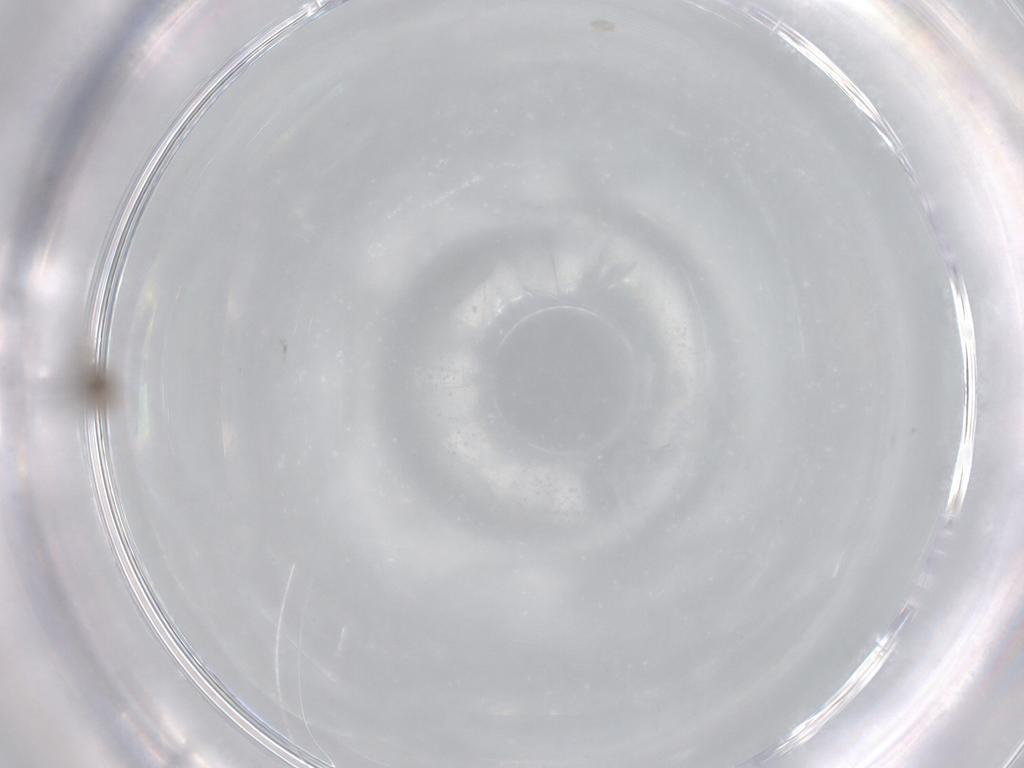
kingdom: Animalia
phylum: Arthropoda
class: Insecta
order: Diptera
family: Cecidomyiidae
